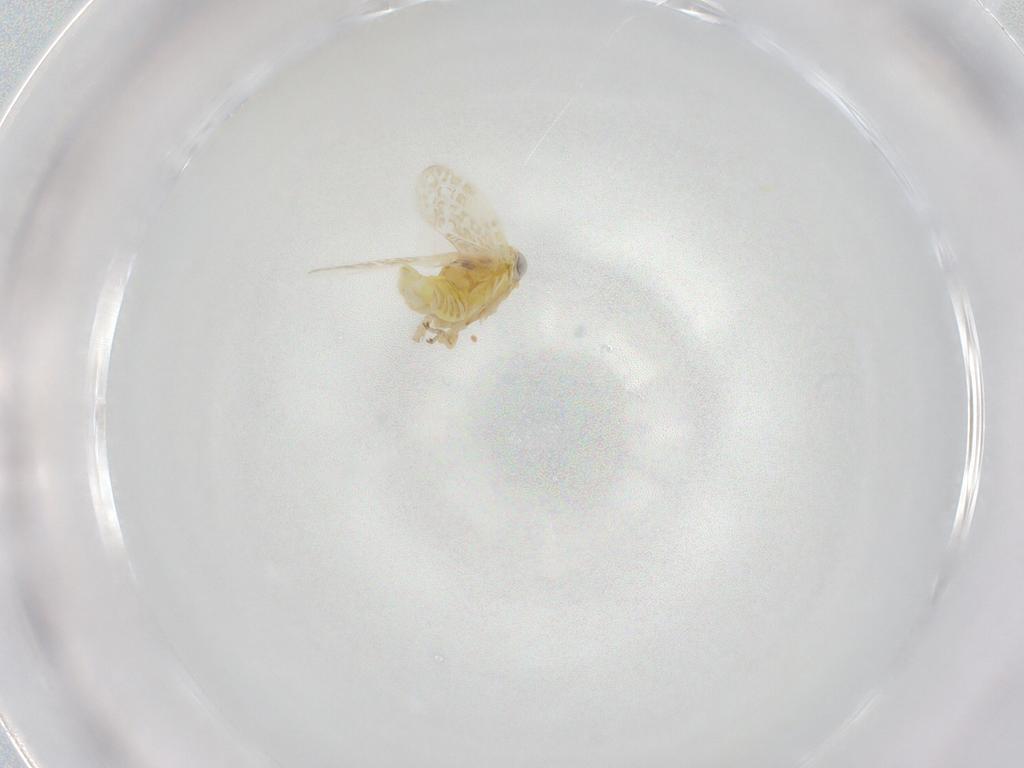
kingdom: Animalia
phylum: Arthropoda
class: Insecta
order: Hemiptera
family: Cicadellidae
